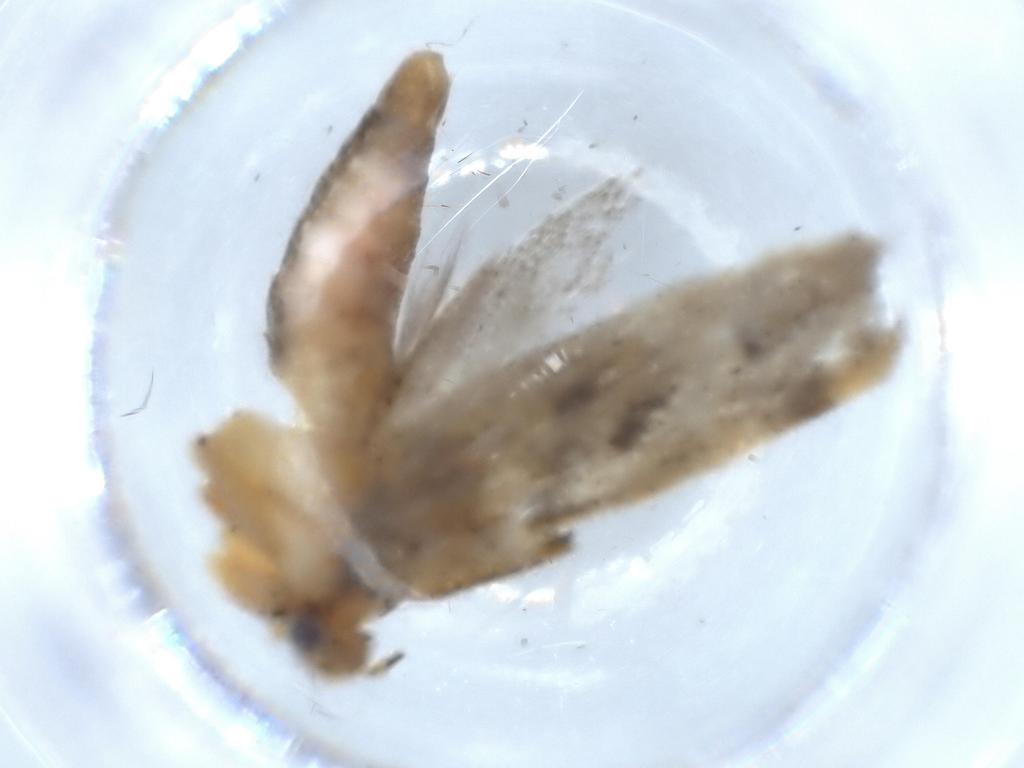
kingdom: Animalia
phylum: Arthropoda
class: Insecta
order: Lepidoptera
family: Gelechiidae
